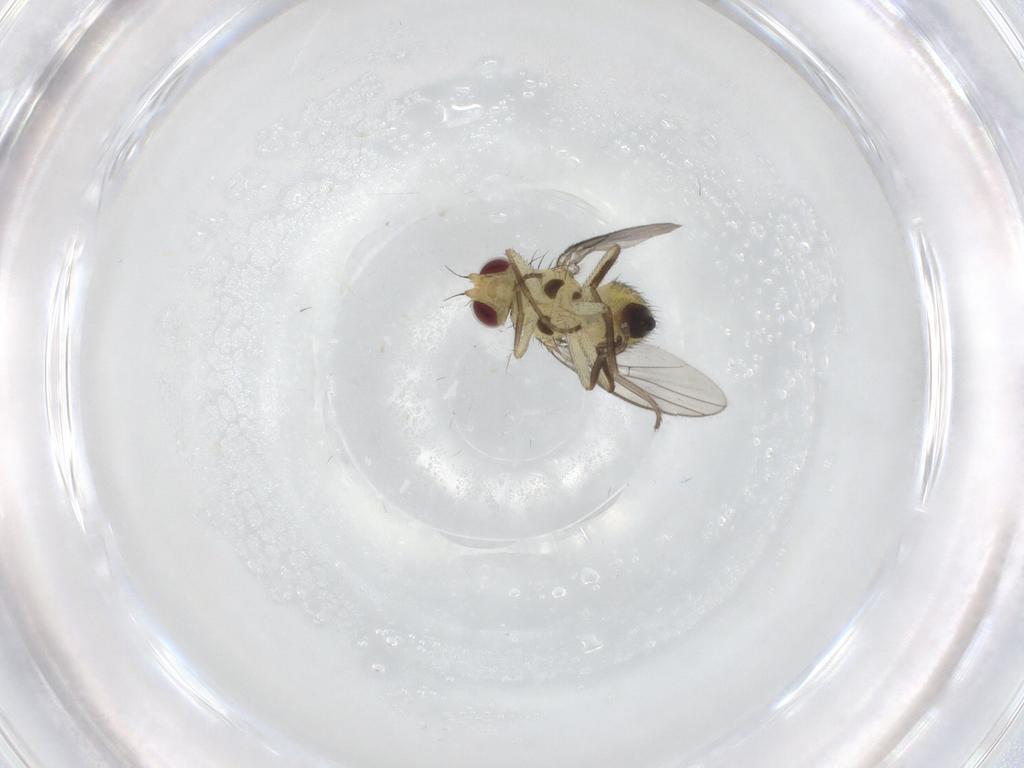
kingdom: Animalia
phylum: Arthropoda
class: Insecta
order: Diptera
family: Agromyzidae
